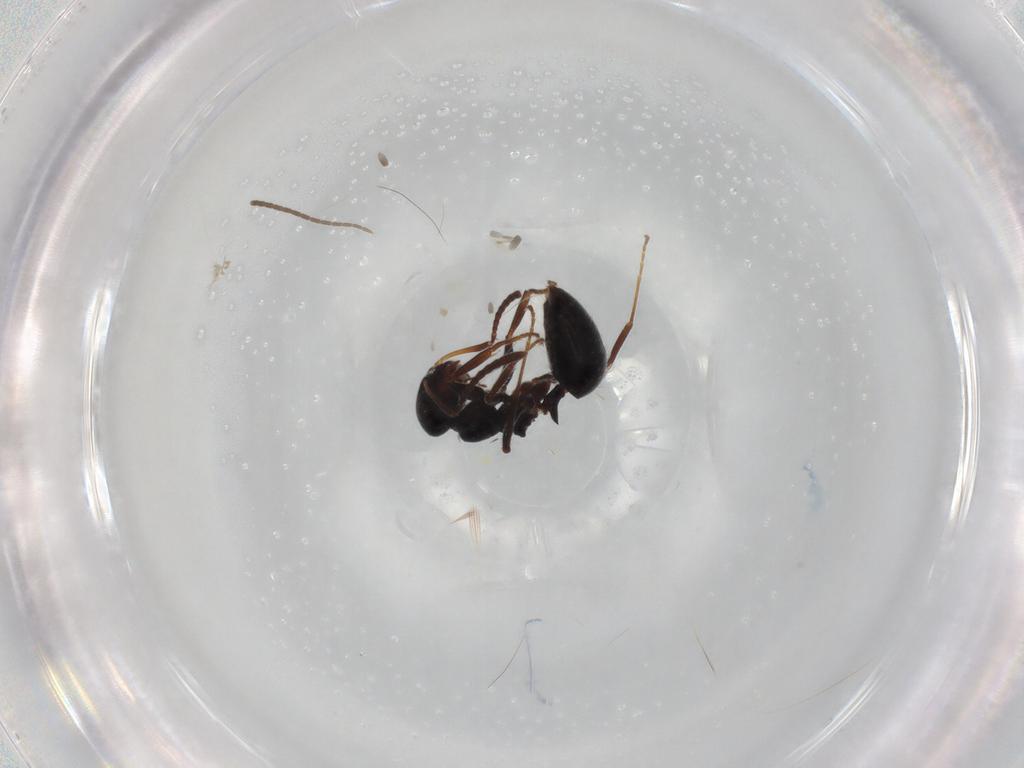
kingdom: Animalia
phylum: Arthropoda
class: Insecta
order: Hymenoptera
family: Formicidae
